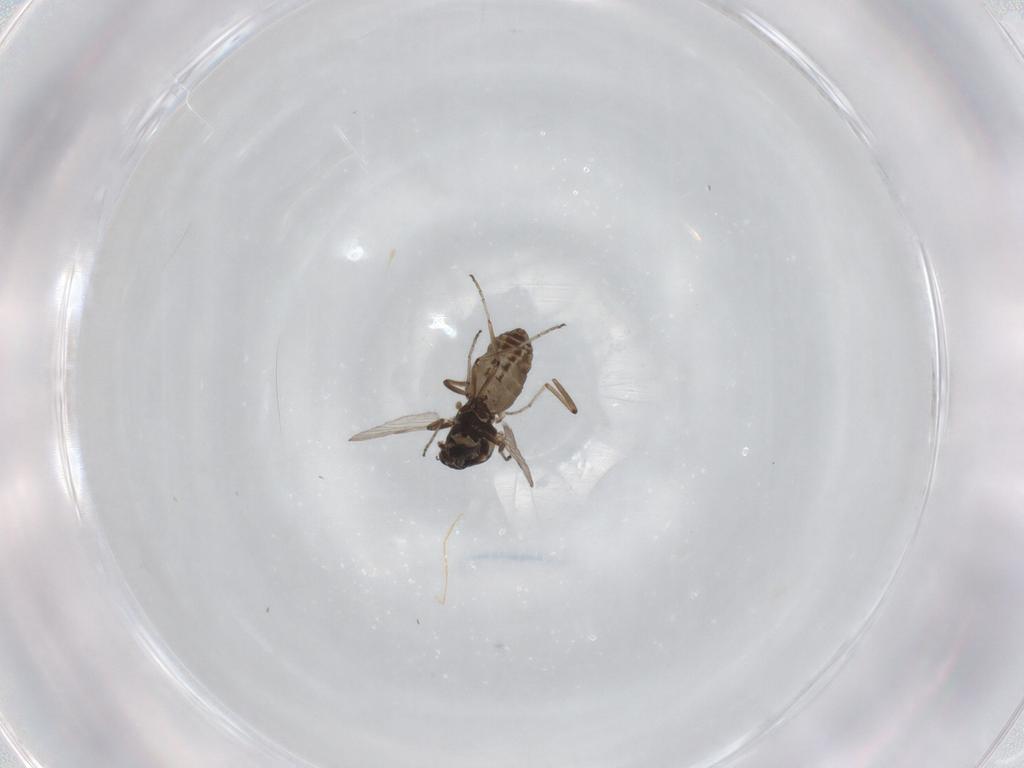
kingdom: Animalia
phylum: Arthropoda
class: Insecta
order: Diptera
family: Ceratopogonidae
